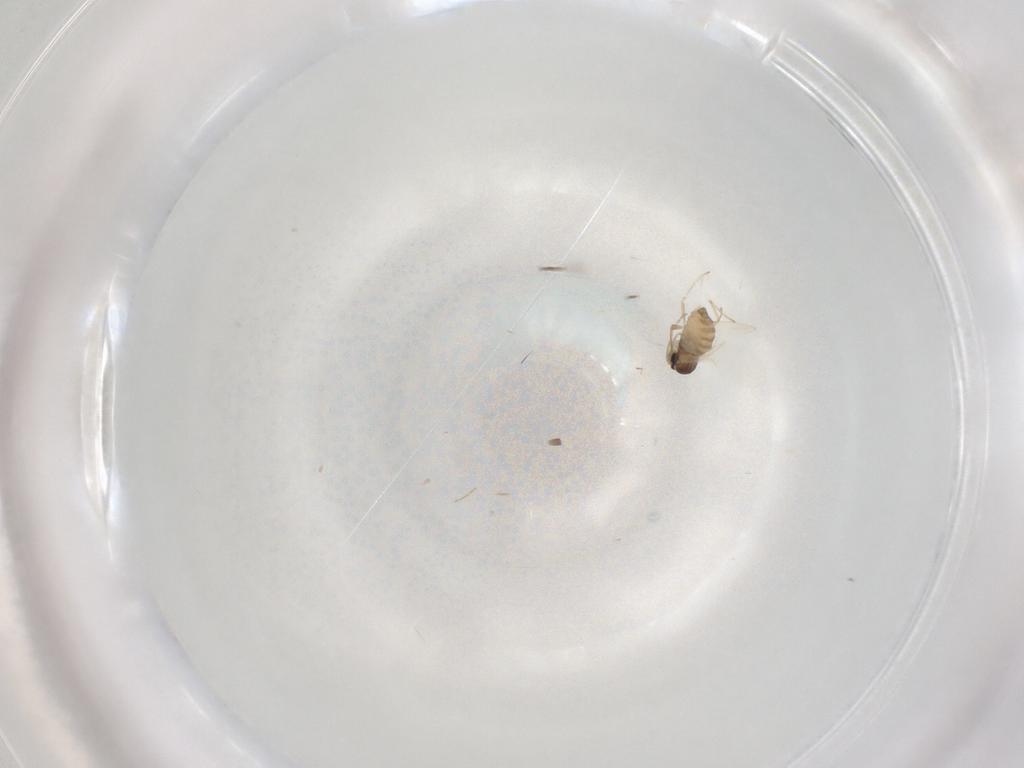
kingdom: Animalia
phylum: Arthropoda
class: Insecta
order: Diptera
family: Cecidomyiidae
